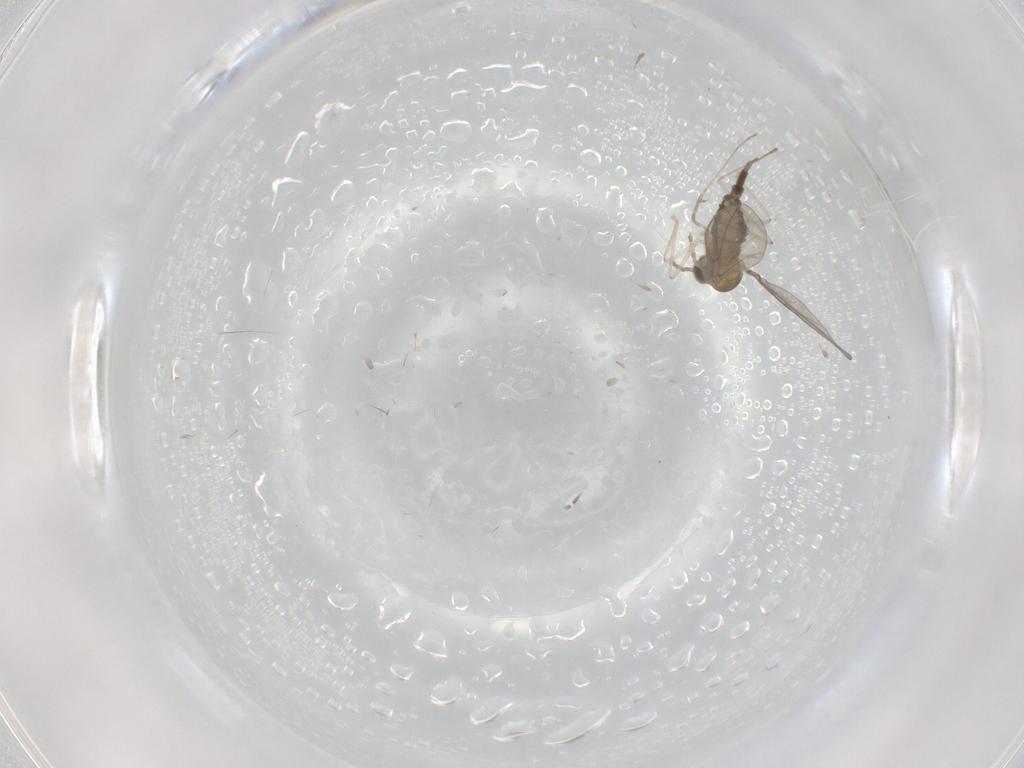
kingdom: Animalia
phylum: Arthropoda
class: Insecta
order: Diptera
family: Cecidomyiidae
